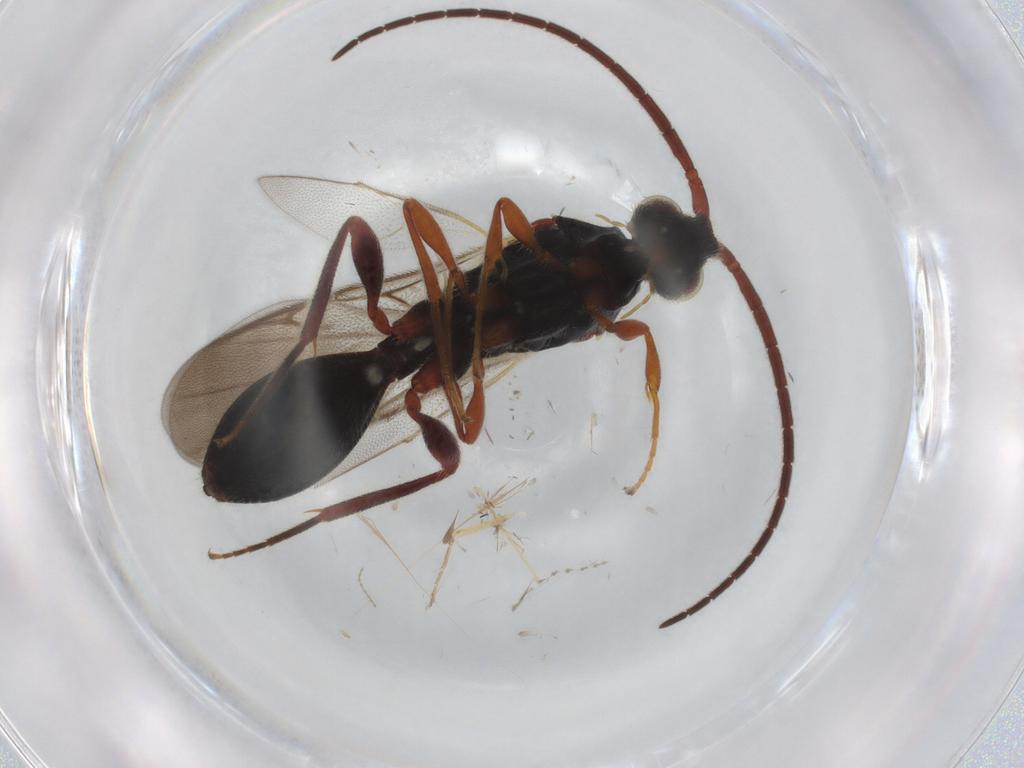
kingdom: Animalia
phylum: Arthropoda
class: Insecta
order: Hymenoptera
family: Diapriidae
